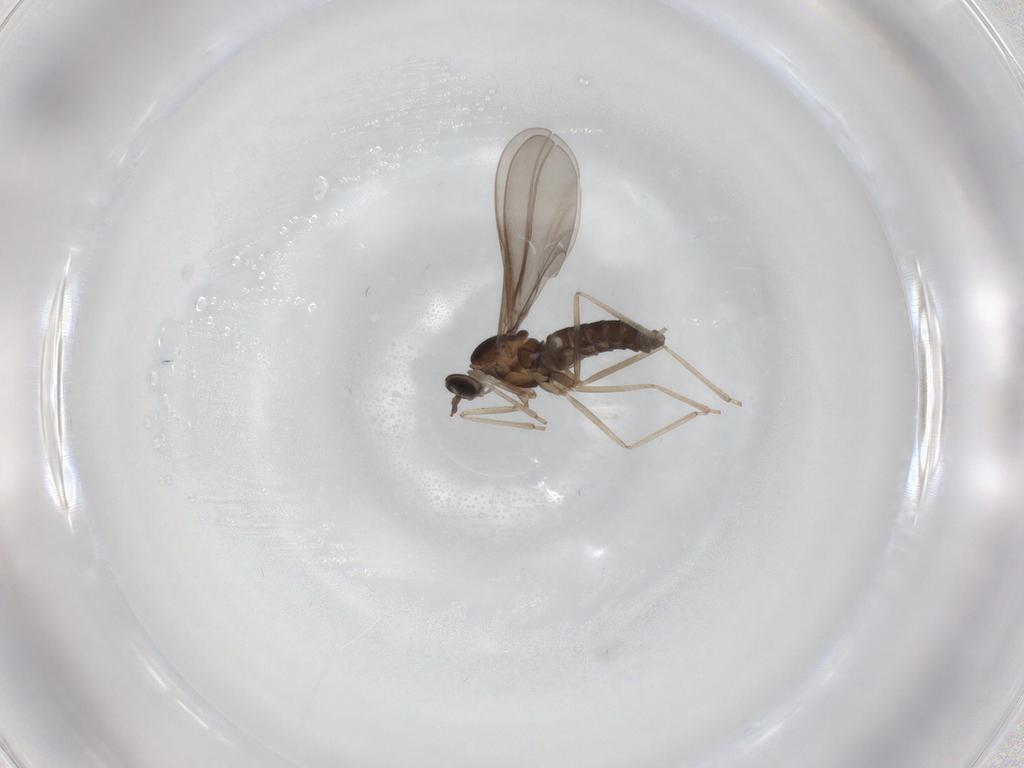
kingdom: Animalia
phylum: Arthropoda
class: Insecta
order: Diptera
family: Cecidomyiidae
